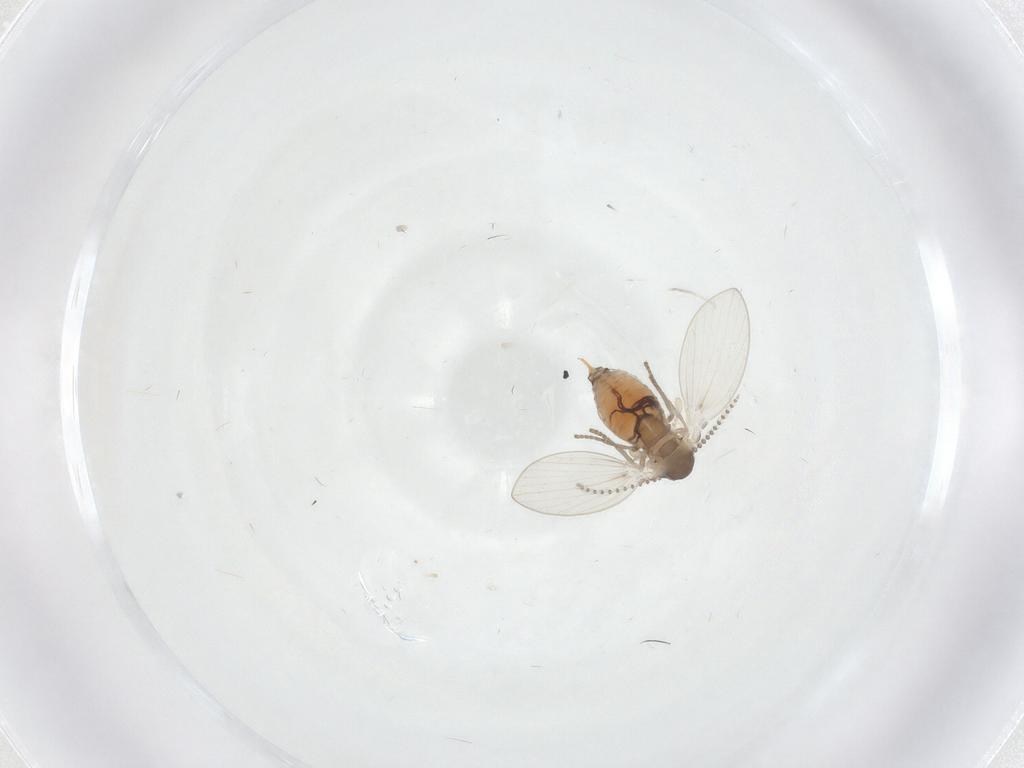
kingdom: Animalia
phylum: Arthropoda
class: Insecta
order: Diptera
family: Psychodidae
